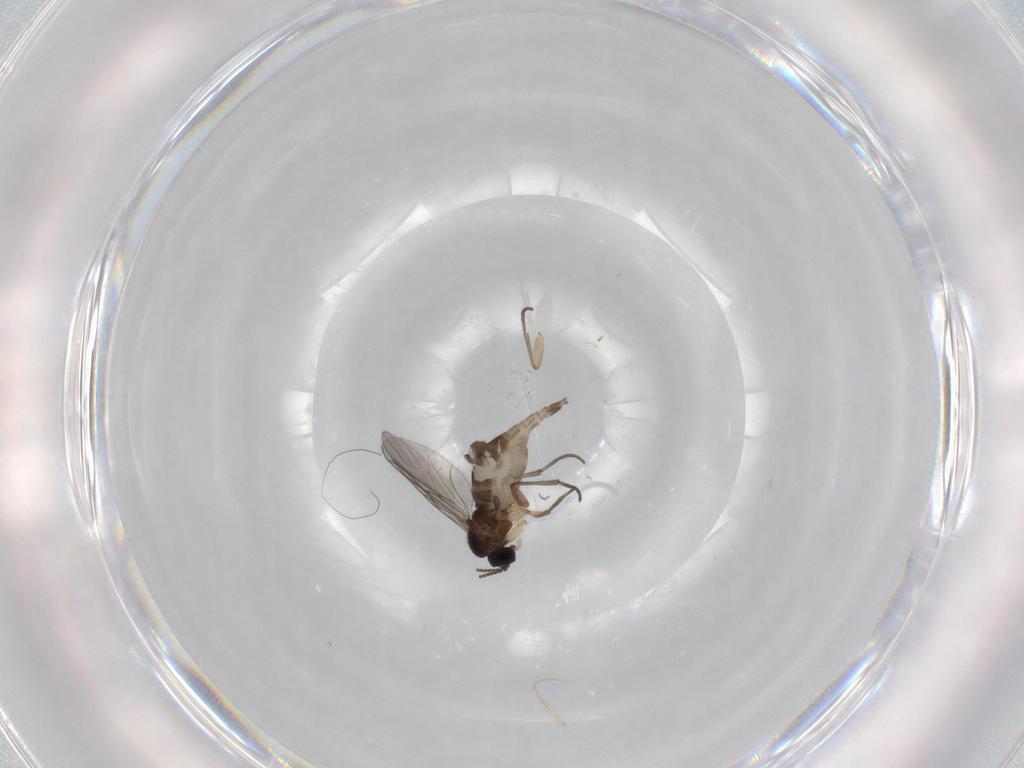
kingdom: Animalia
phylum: Arthropoda
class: Insecta
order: Diptera
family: Sciaridae
